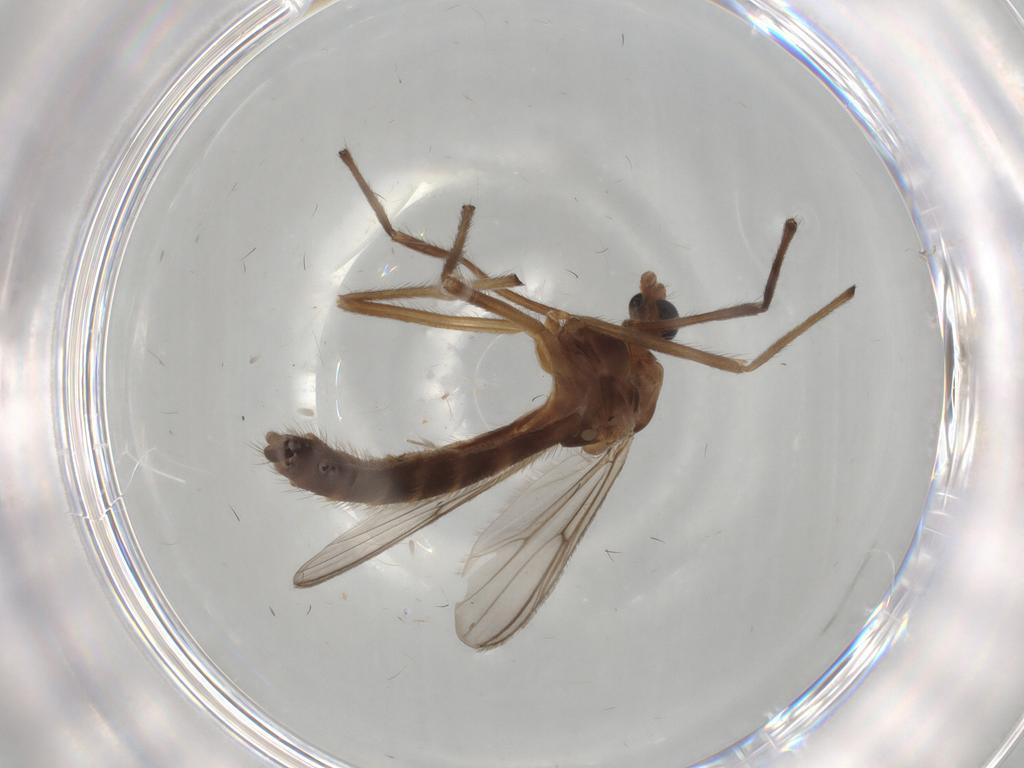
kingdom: Animalia
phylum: Arthropoda
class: Insecta
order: Diptera
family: Chironomidae
